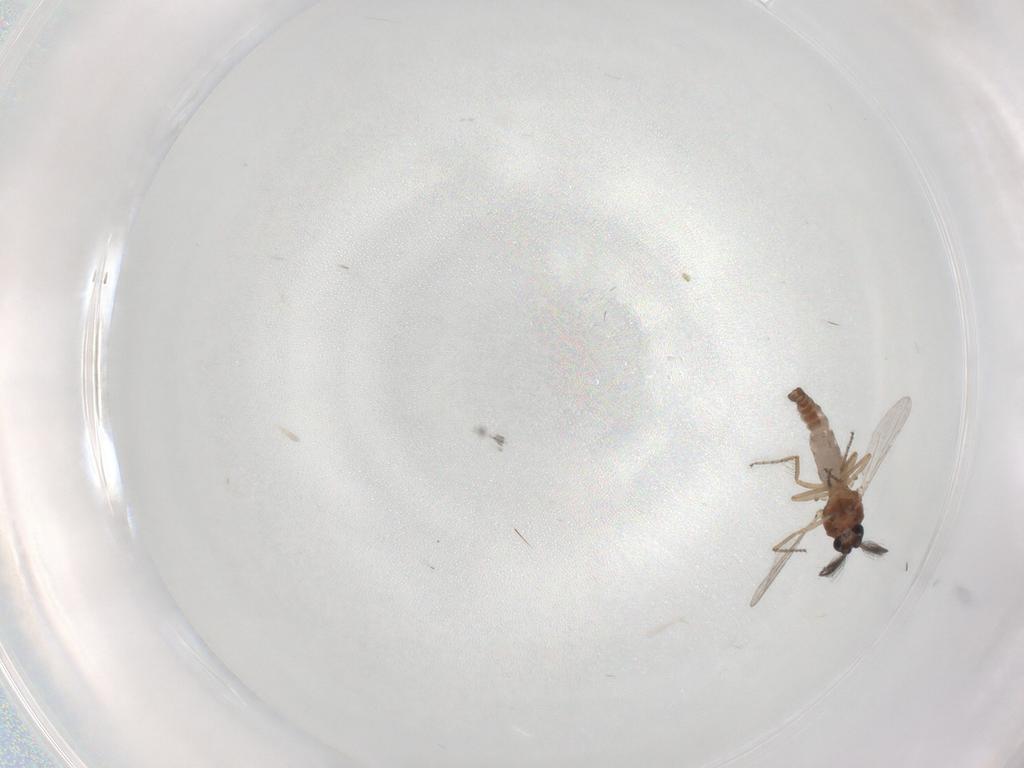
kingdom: Animalia
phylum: Arthropoda
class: Insecta
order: Diptera
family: Ceratopogonidae
